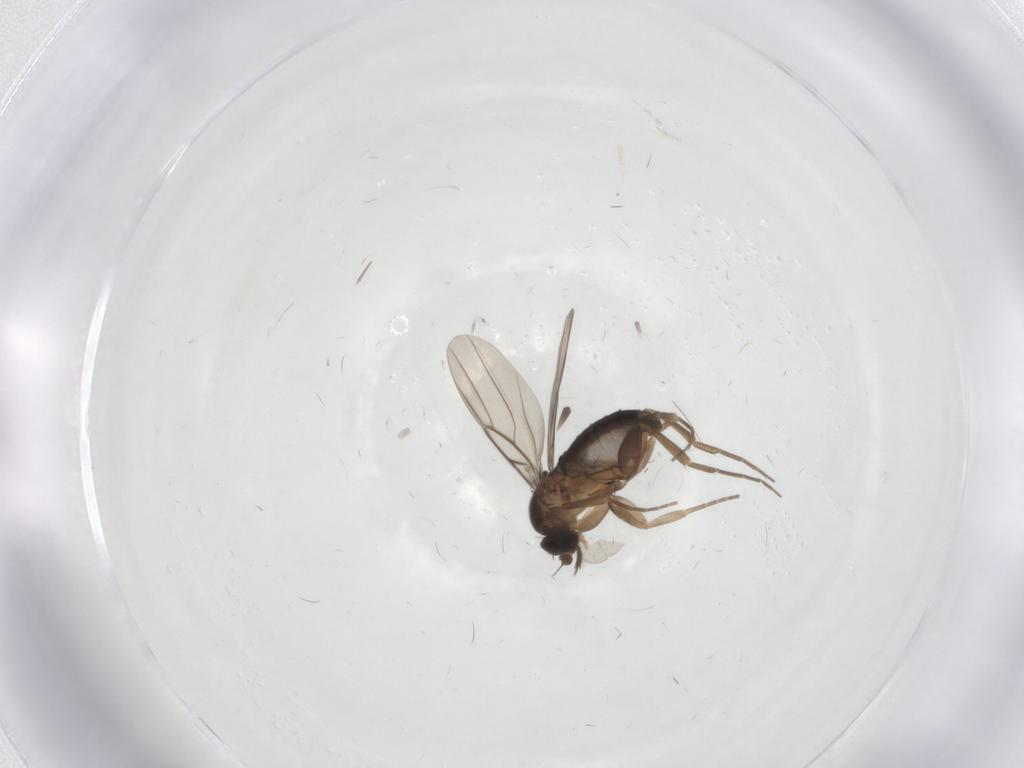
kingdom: Animalia
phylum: Arthropoda
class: Insecta
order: Diptera
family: Phoridae
